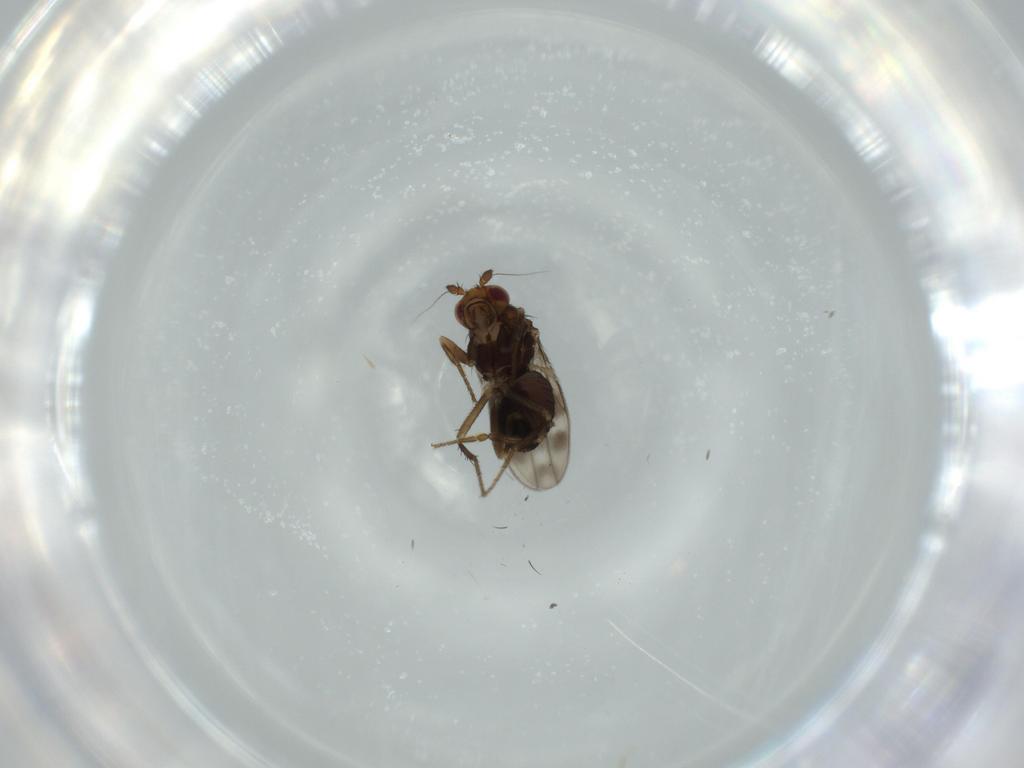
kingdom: Animalia
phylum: Arthropoda
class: Insecta
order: Diptera
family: Sphaeroceridae
